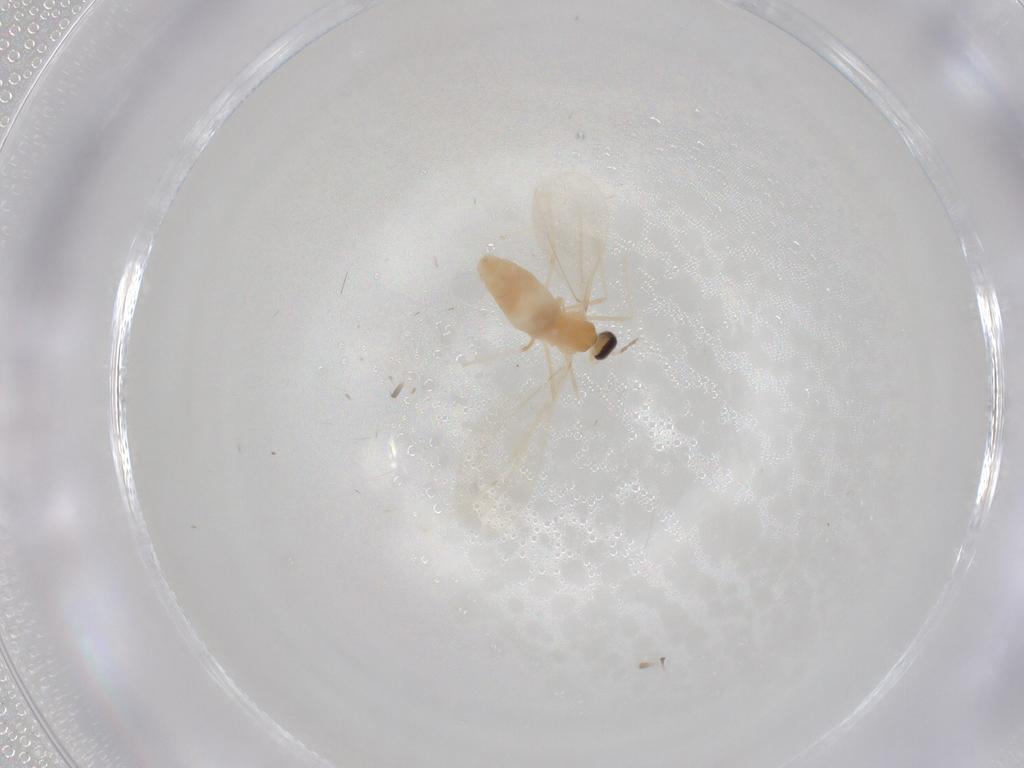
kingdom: Animalia
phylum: Arthropoda
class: Insecta
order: Diptera
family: Cecidomyiidae
